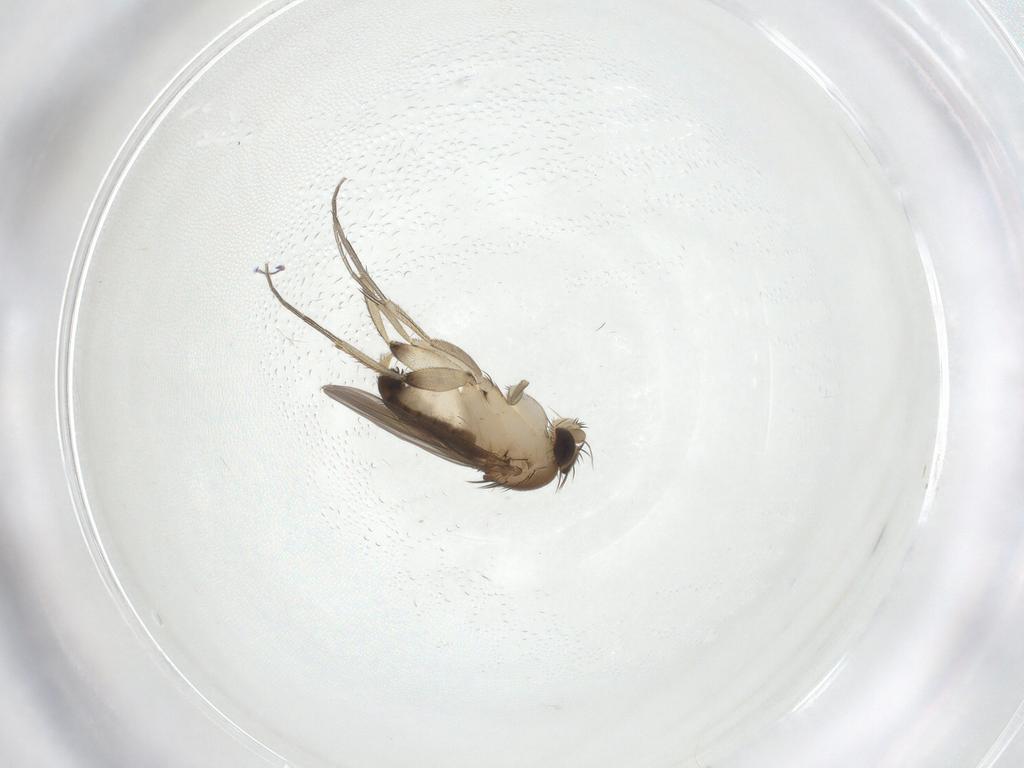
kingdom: Animalia
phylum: Arthropoda
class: Insecta
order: Diptera
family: Phoridae
